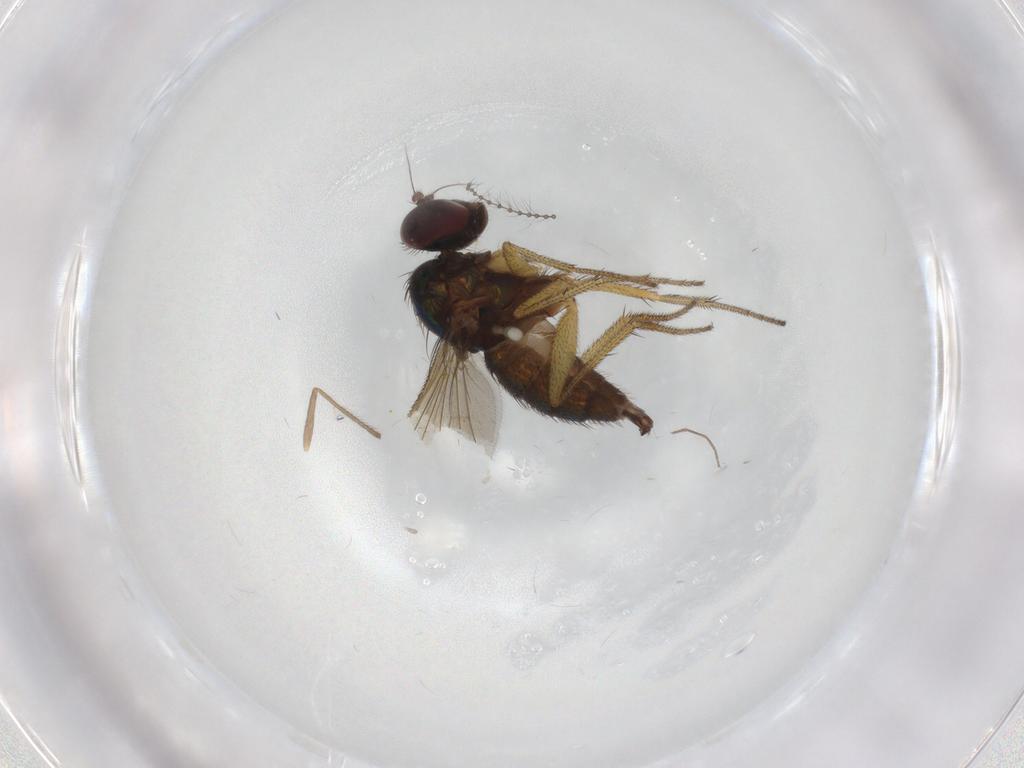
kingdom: Animalia
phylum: Arthropoda
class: Insecta
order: Diptera
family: Cecidomyiidae
